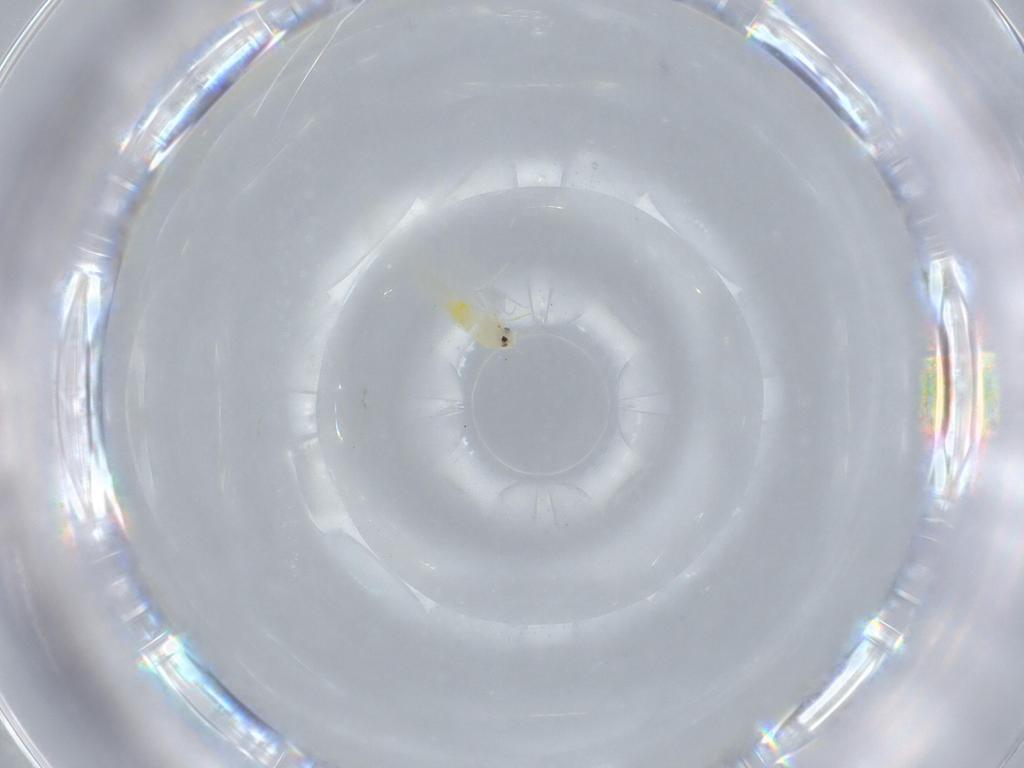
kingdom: Animalia
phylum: Arthropoda
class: Insecta
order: Hemiptera
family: Aleyrodidae
